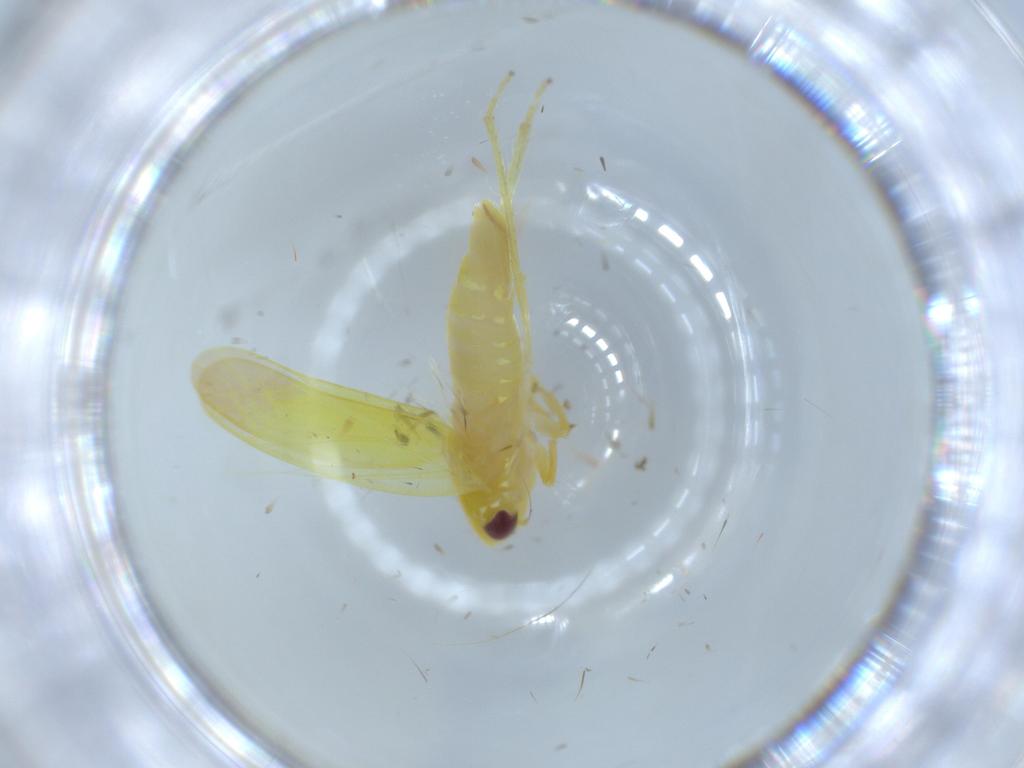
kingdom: Animalia
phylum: Arthropoda
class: Insecta
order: Hemiptera
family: Cicadellidae
